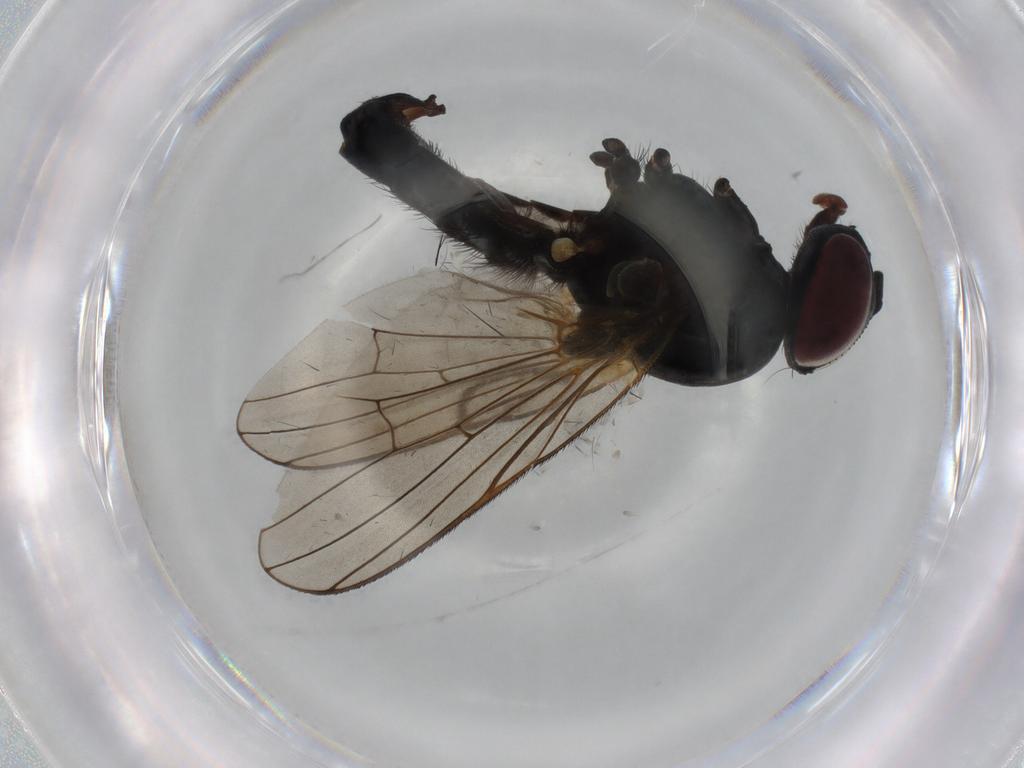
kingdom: Animalia
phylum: Arthropoda
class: Insecta
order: Diptera
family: Fannia
